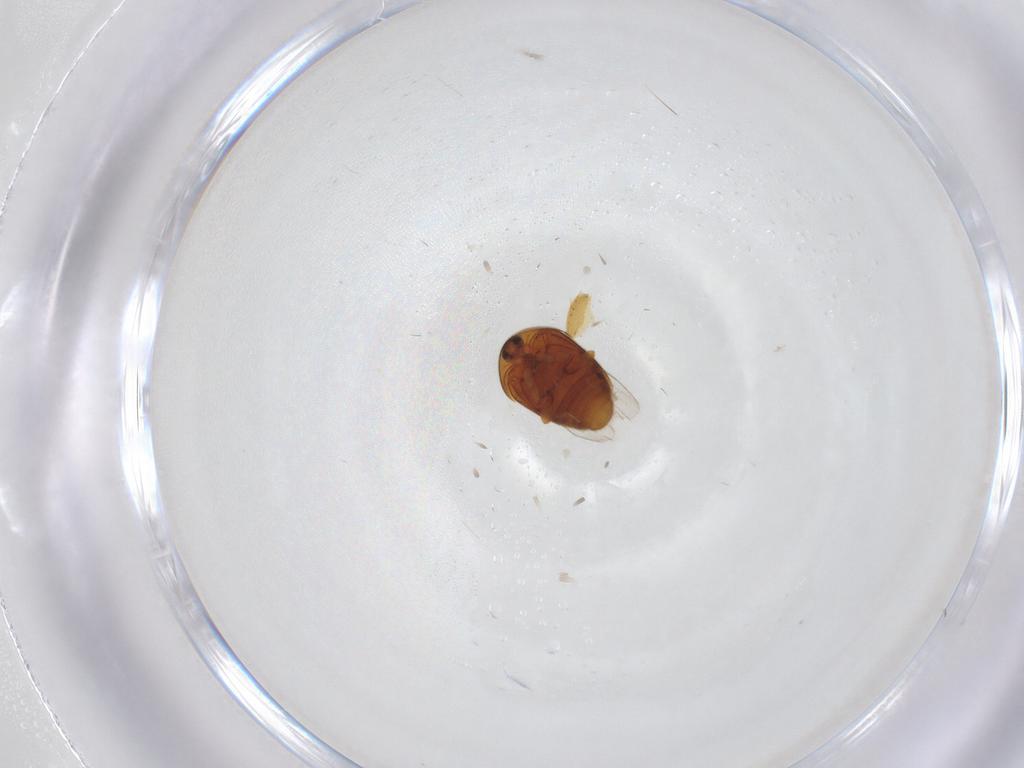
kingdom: Animalia
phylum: Arthropoda
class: Insecta
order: Coleoptera
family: Corylophidae
